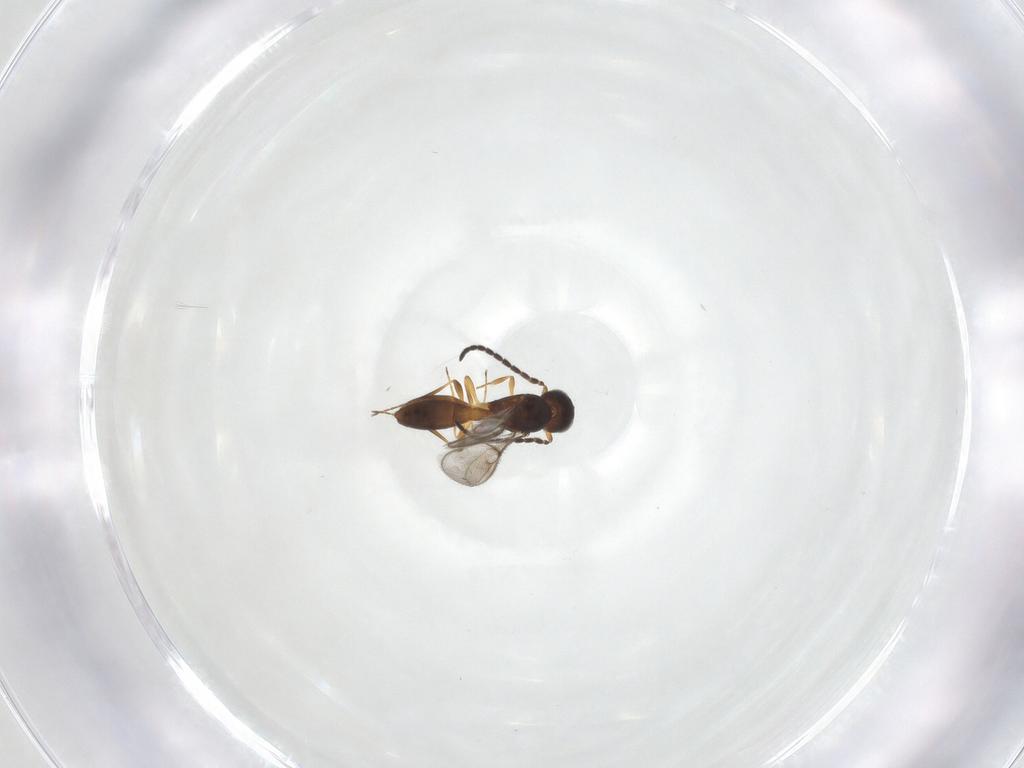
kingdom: Animalia
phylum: Arthropoda
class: Insecta
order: Hymenoptera
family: Scelionidae
